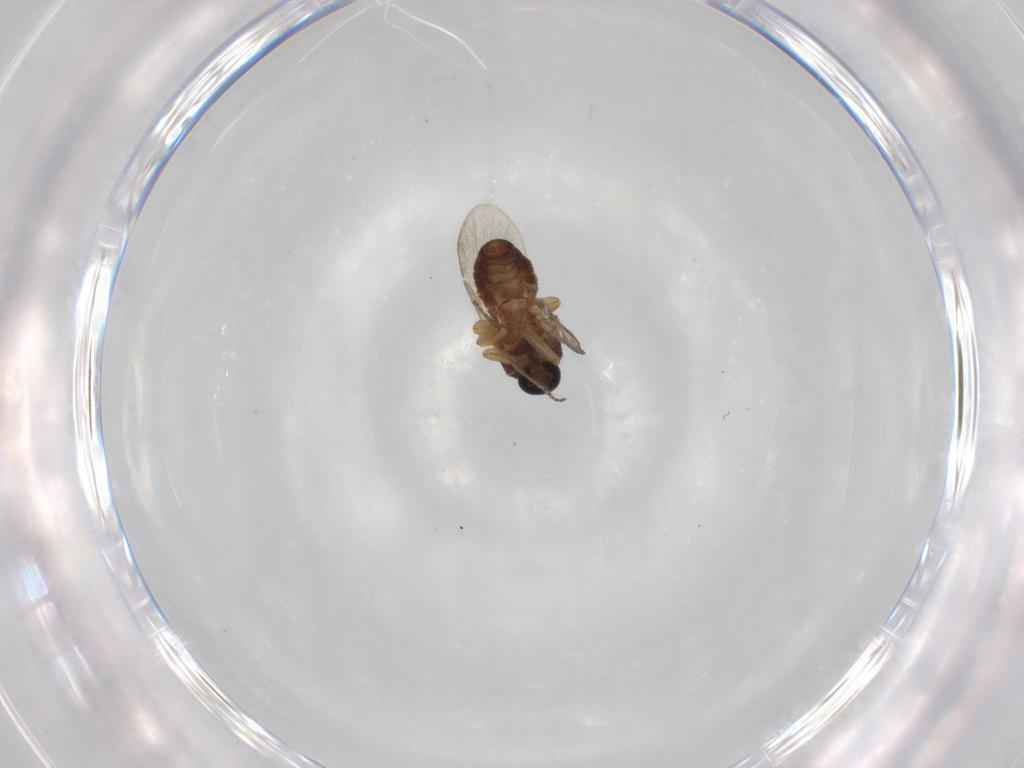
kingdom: Animalia
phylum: Arthropoda
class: Insecta
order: Diptera
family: Ceratopogonidae
